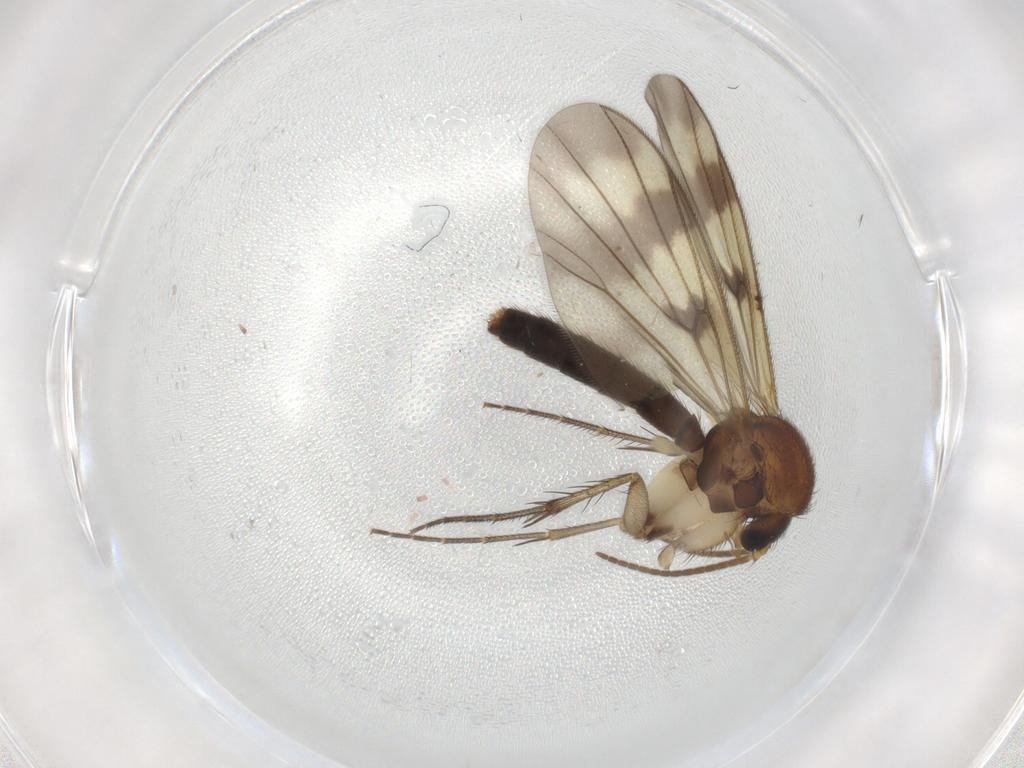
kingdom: Animalia
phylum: Arthropoda
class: Insecta
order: Diptera
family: Mycetophilidae
